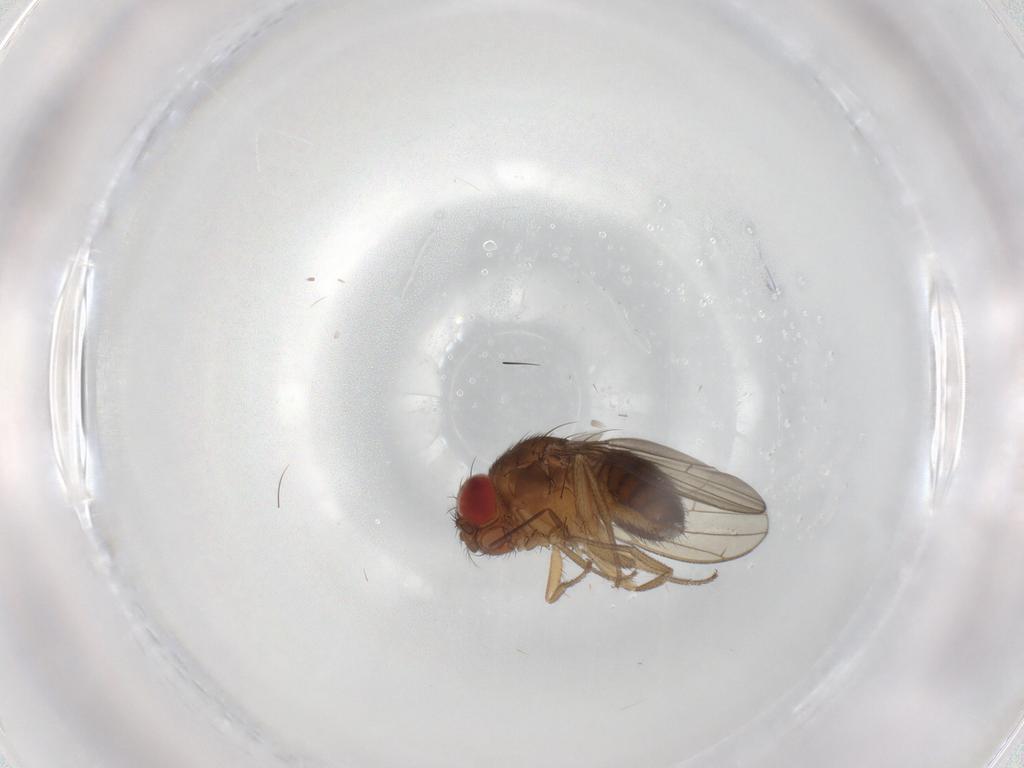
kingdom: Animalia
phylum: Arthropoda
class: Insecta
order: Diptera
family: Drosophilidae
